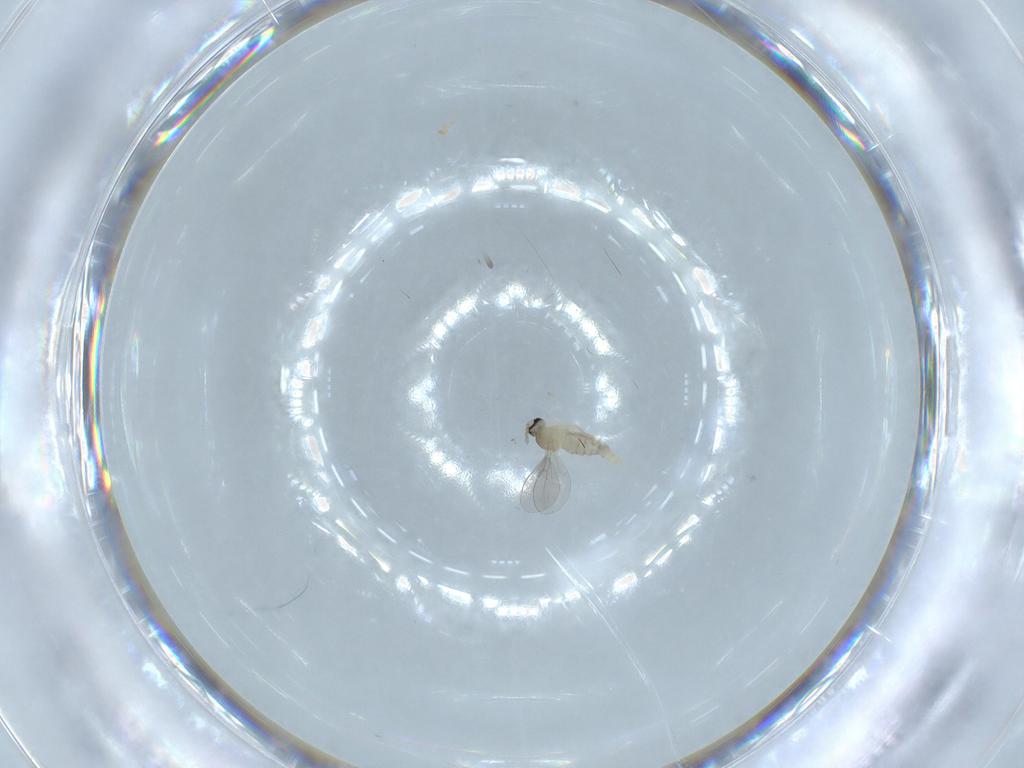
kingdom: Animalia
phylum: Arthropoda
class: Insecta
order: Diptera
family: Cecidomyiidae
